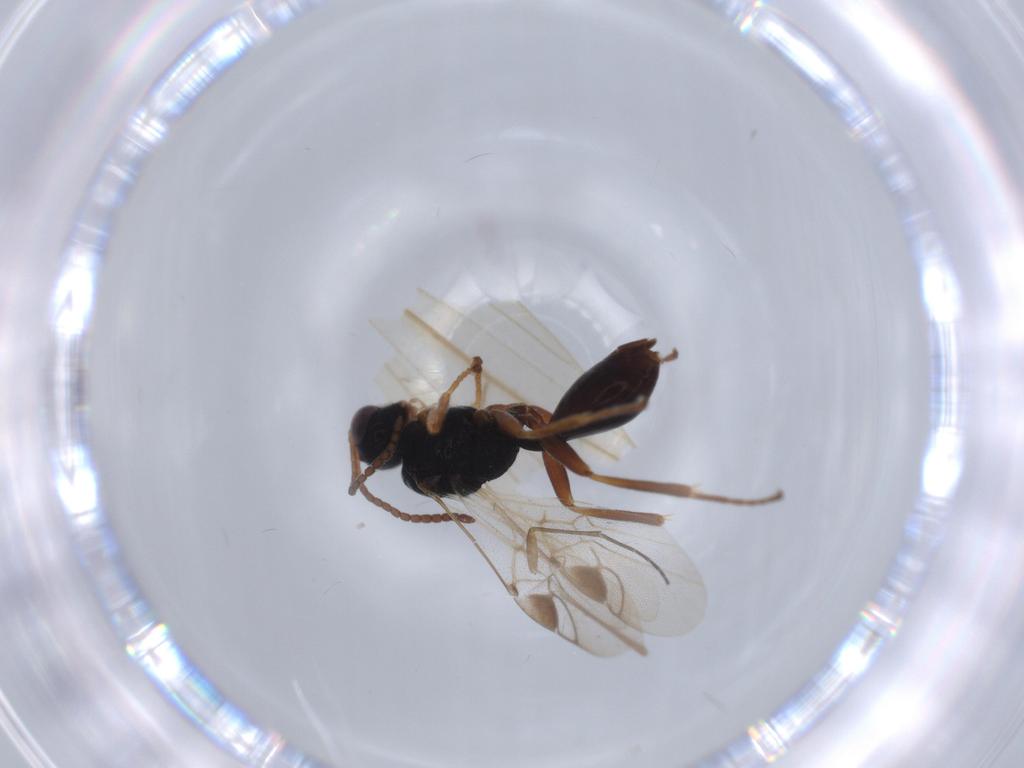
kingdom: Animalia
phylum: Arthropoda
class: Insecta
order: Hymenoptera
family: Braconidae
